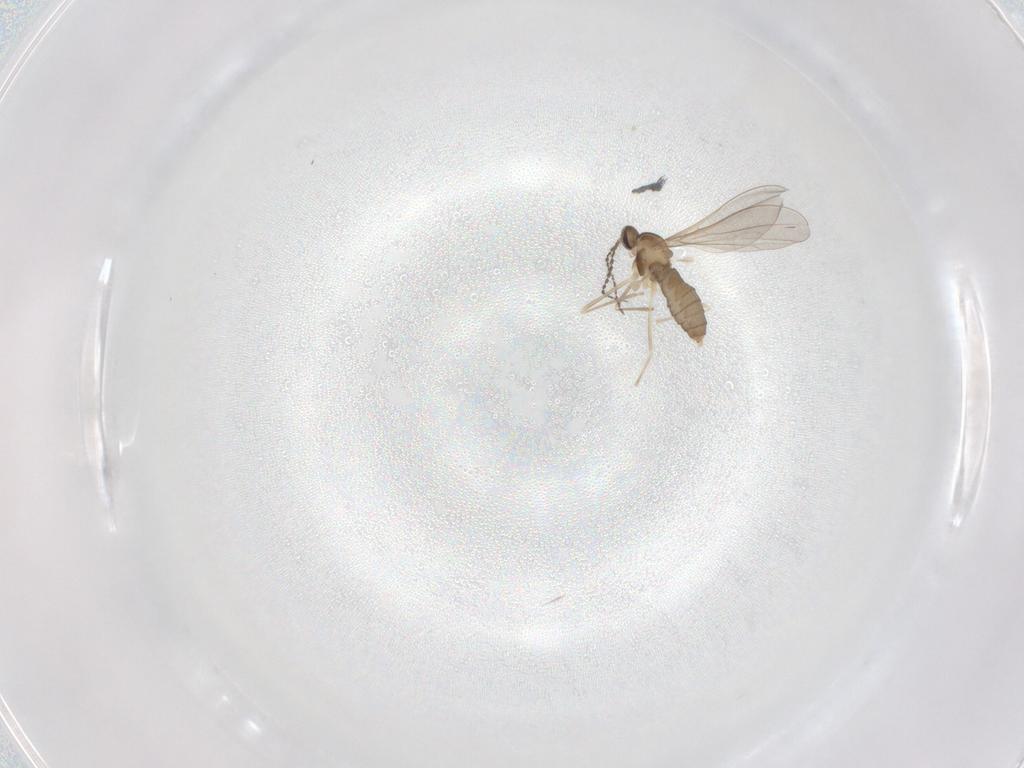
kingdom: Animalia
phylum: Arthropoda
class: Insecta
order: Diptera
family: Cecidomyiidae
